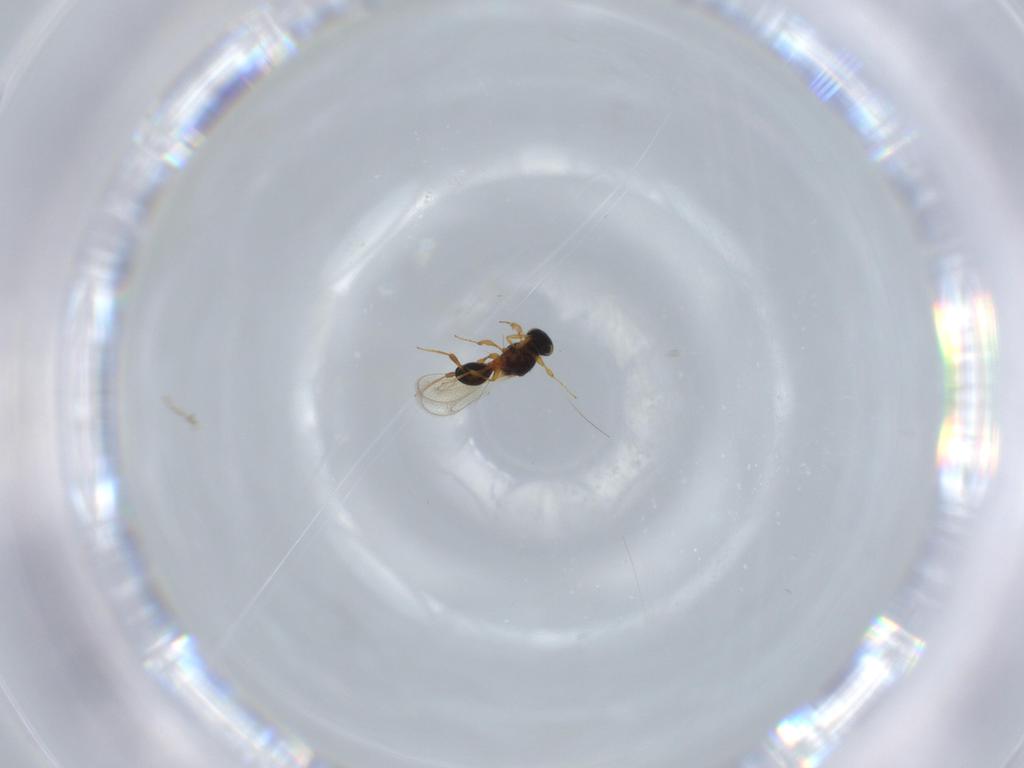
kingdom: Animalia
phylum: Arthropoda
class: Insecta
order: Hymenoptera
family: Platygastridae
